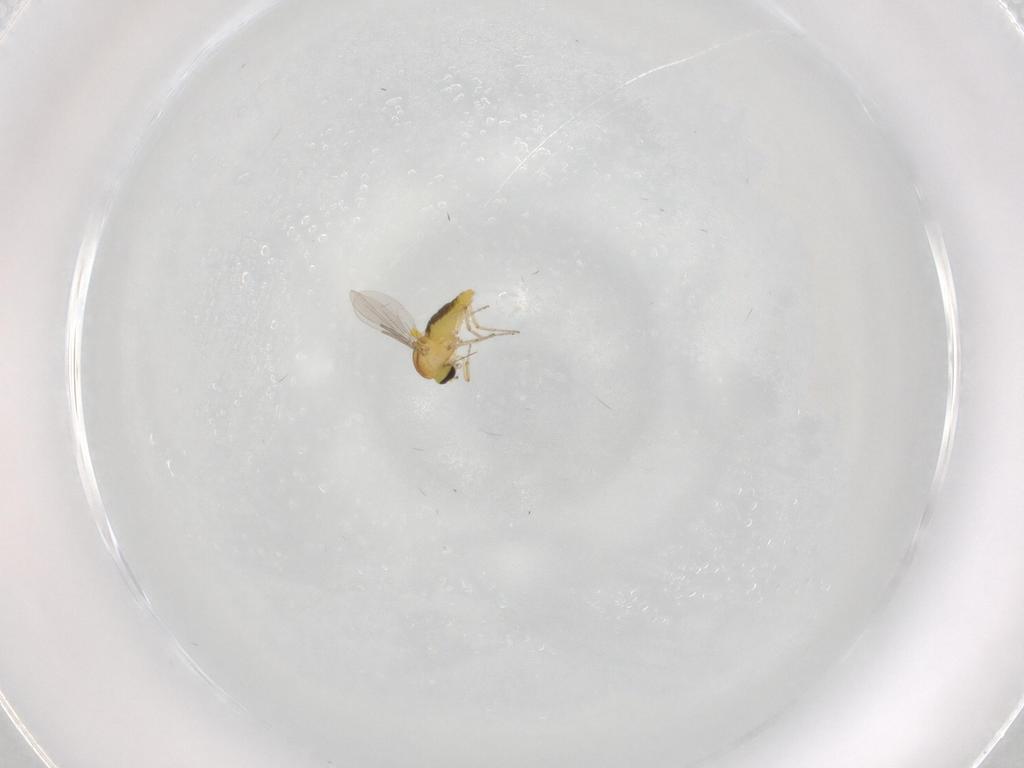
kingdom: Animalia
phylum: Arthropoda
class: Insecta
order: Diptera
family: Ceratopogonidae
